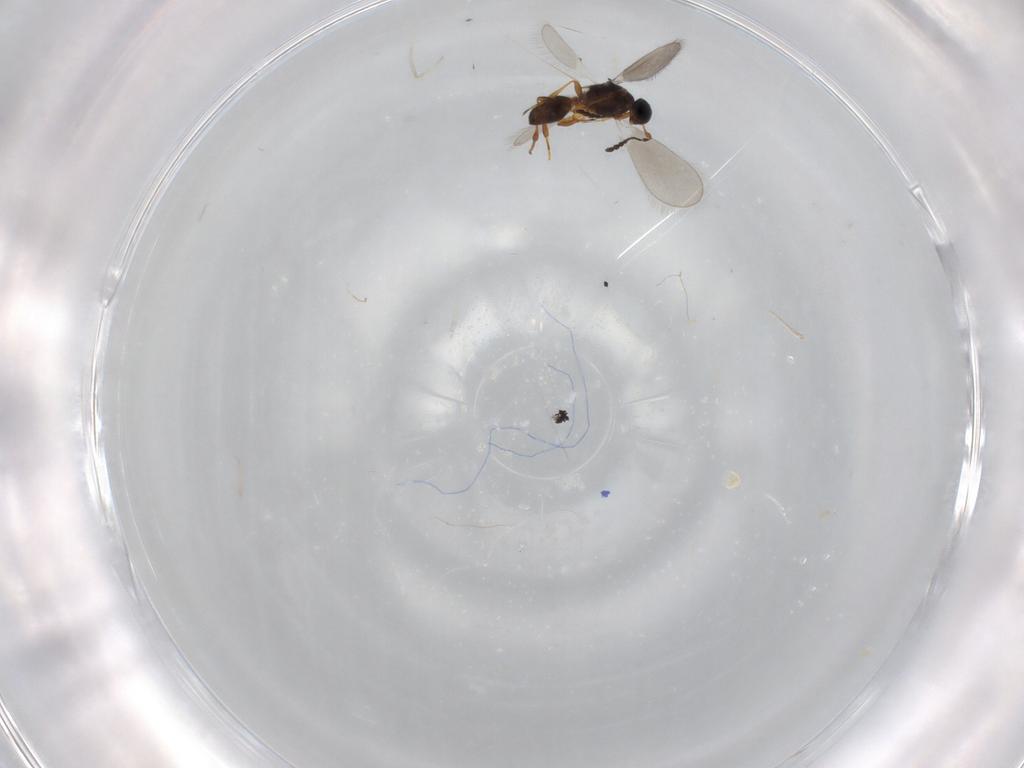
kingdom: Animalia
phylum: Arthropoda
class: Insecta
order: Hymenoptera
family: Platygastridae
